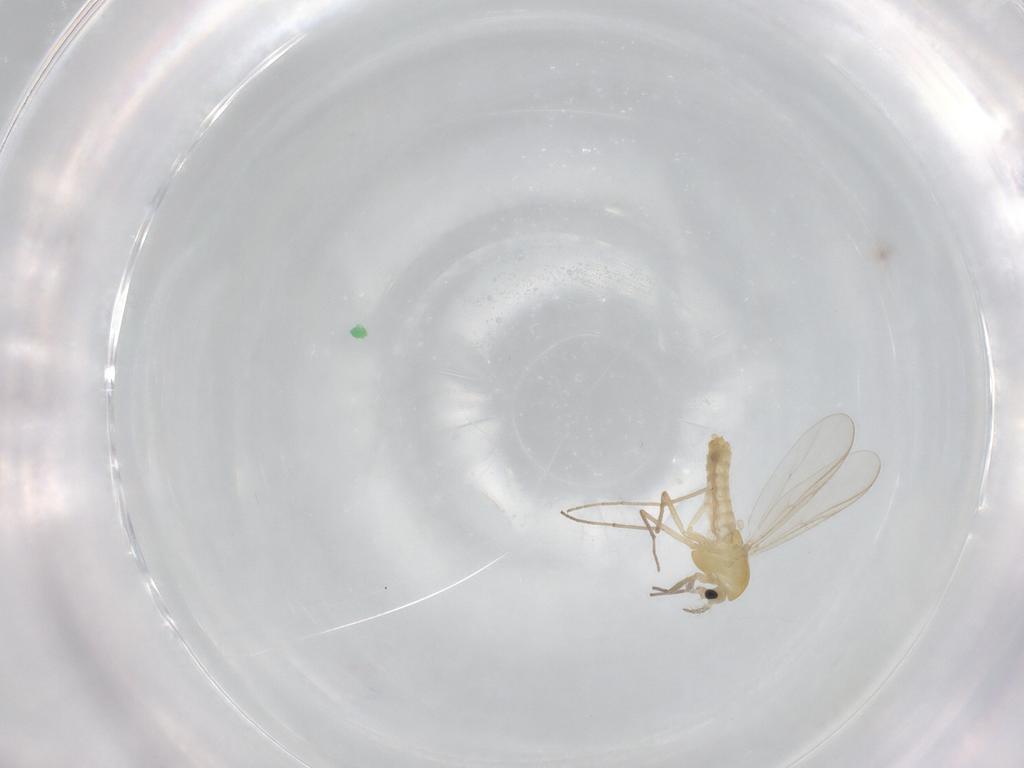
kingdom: Animalia
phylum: Arthropoda
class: Insecta
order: Diptera
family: Chironomidae
